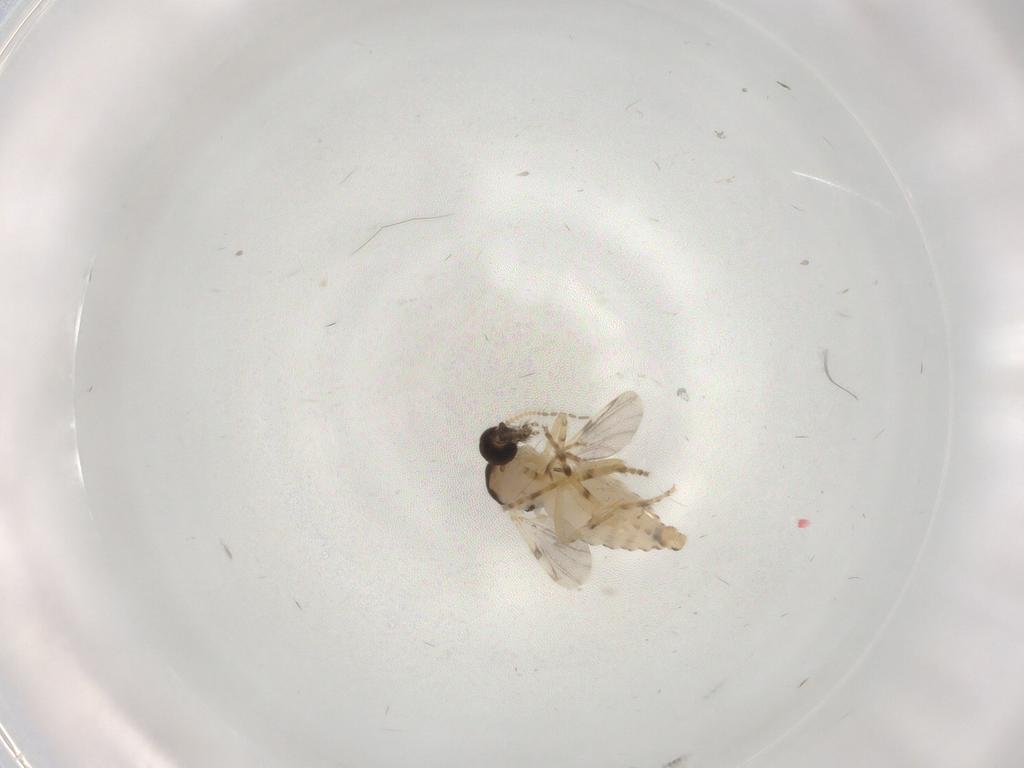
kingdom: Animalia
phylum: Arthropoda
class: Insecta
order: Diptera
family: Ceratopogonidae
